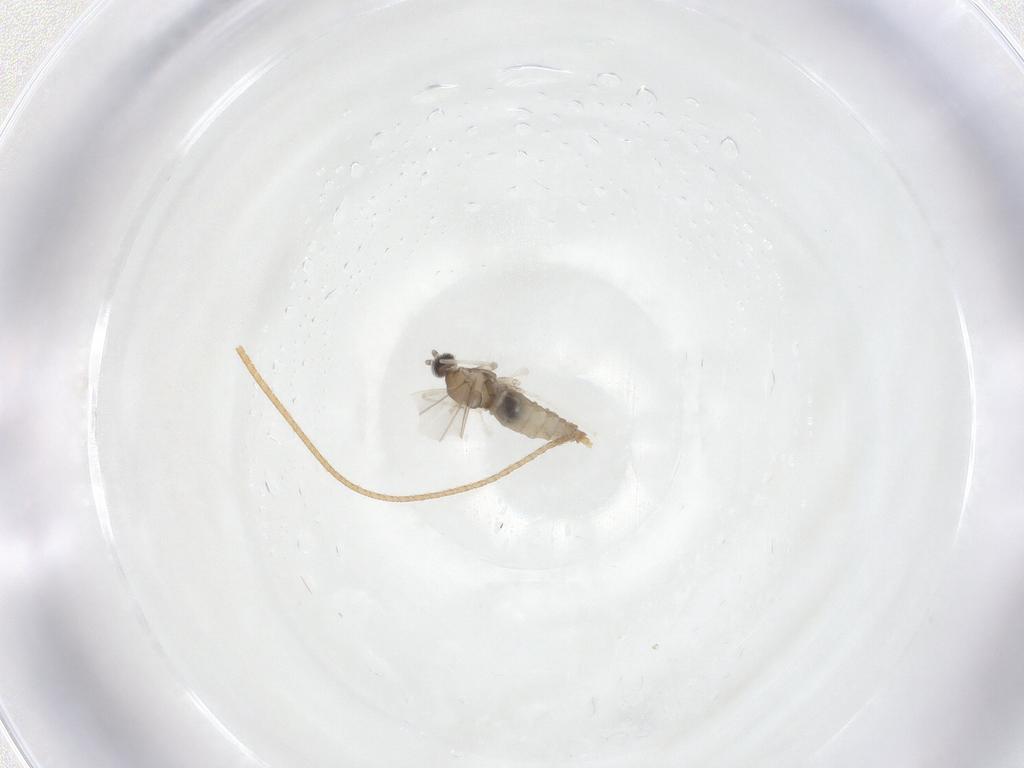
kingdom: Animalia
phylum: Arthropoda
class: Insecta
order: Diptera
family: Cecidomyiidae
